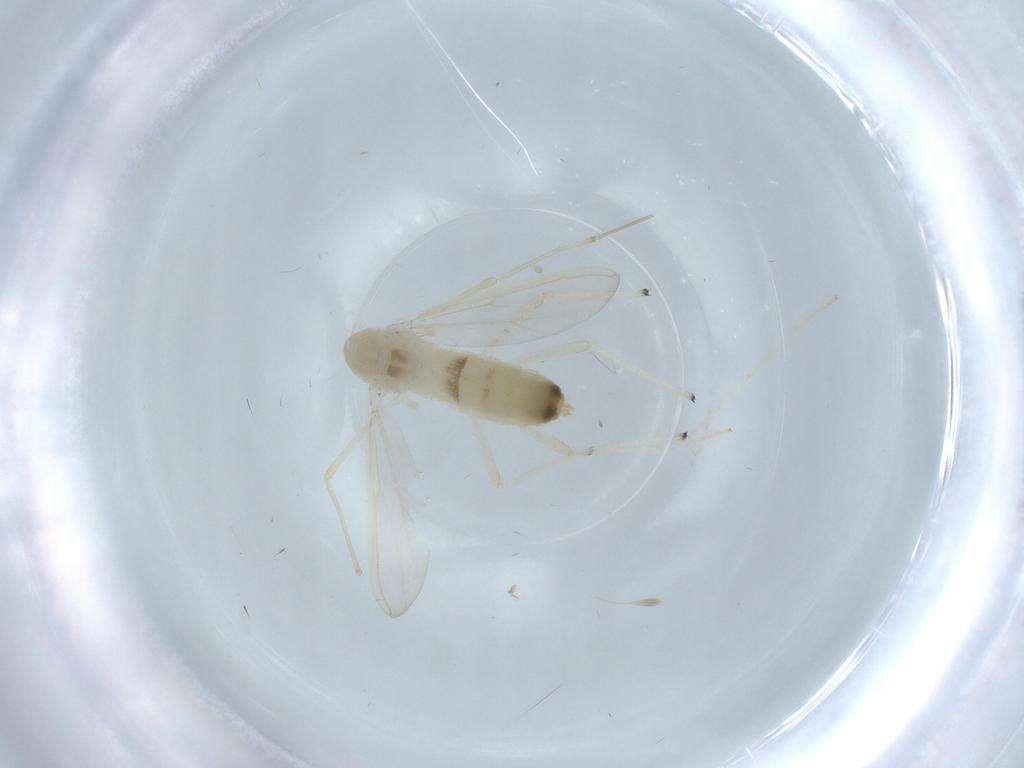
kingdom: Animalia
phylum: Arthropoda
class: Insecta
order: Diptera
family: Chironomidae
